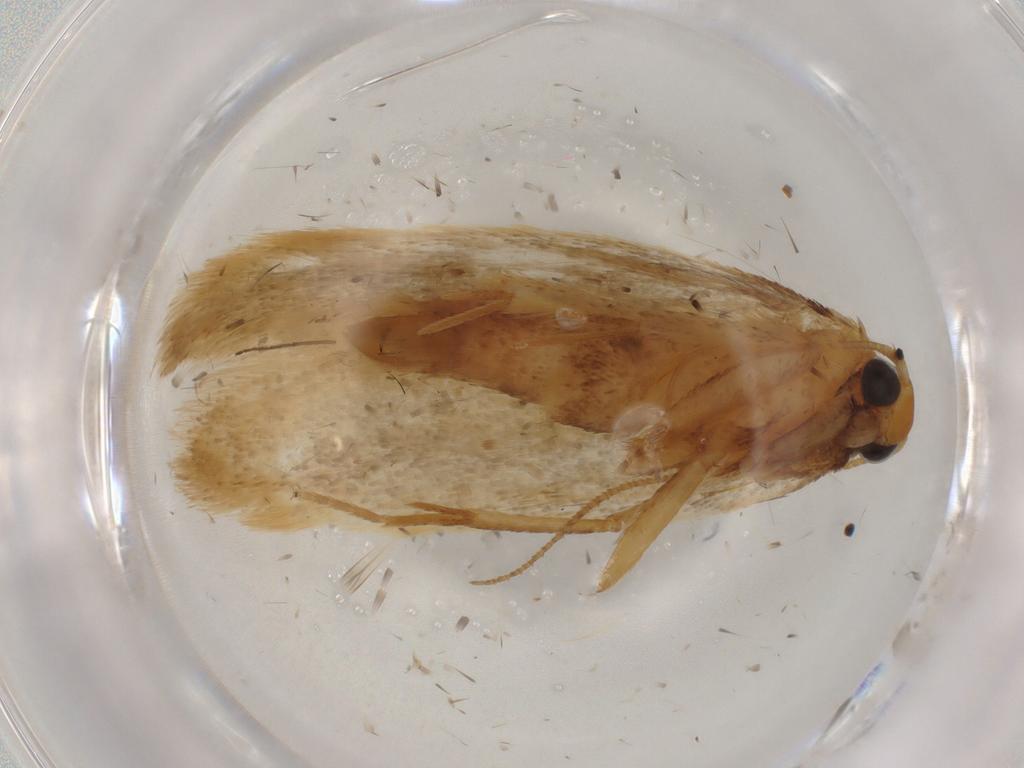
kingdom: Animalia
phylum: Arthropoda
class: Insecta
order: Lepidoptera
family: Gelechiidae
